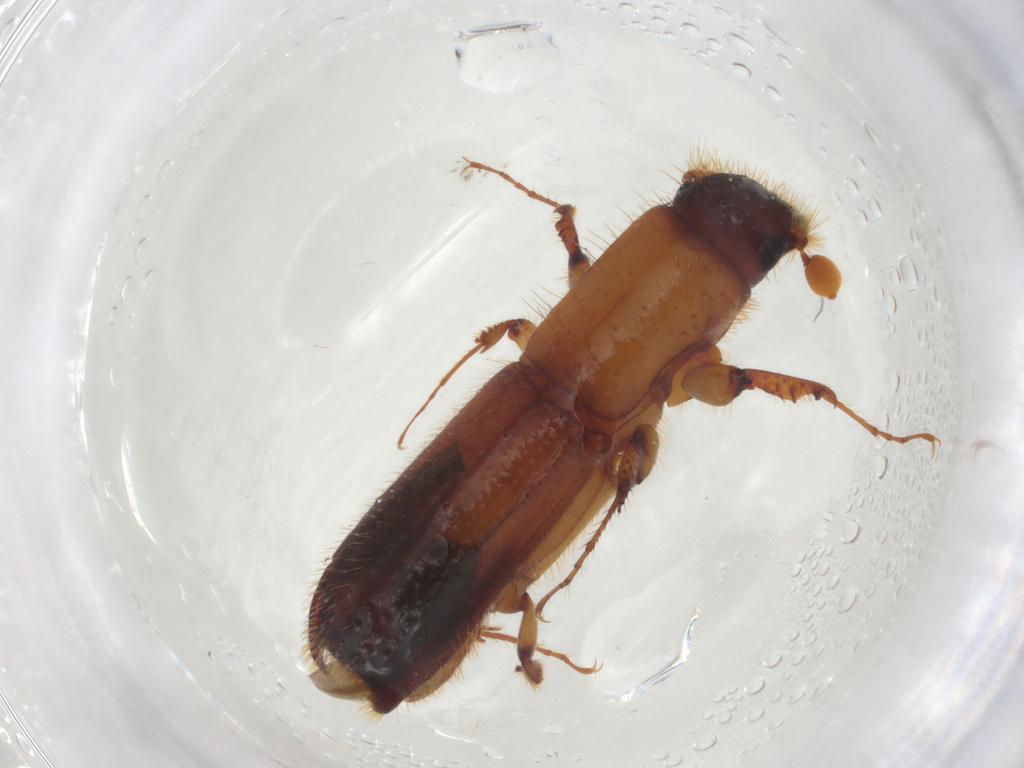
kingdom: Animalia
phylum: Arthropoda
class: Insecta
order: Coleoptera
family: Curculionidae
